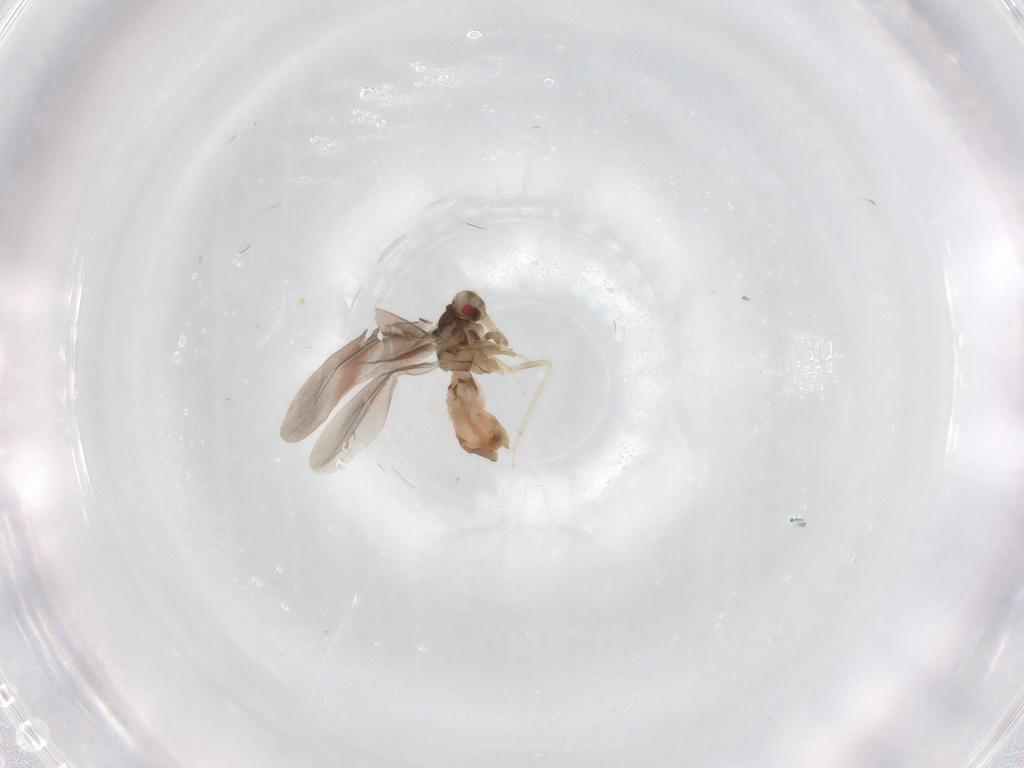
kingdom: Animalia
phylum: Arthropoda
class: Insecta
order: Hemiptera
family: Aleyrodidae
